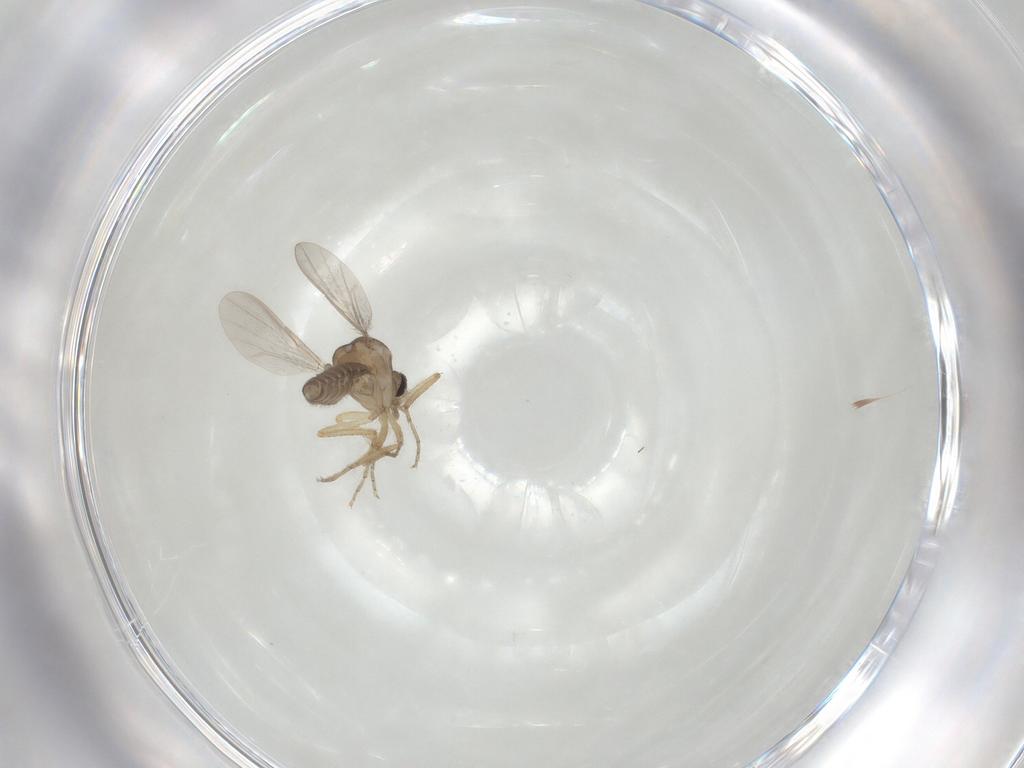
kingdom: Animalia
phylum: Arthropoda
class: Insecta
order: Diptera
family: Ceratopogonidae
